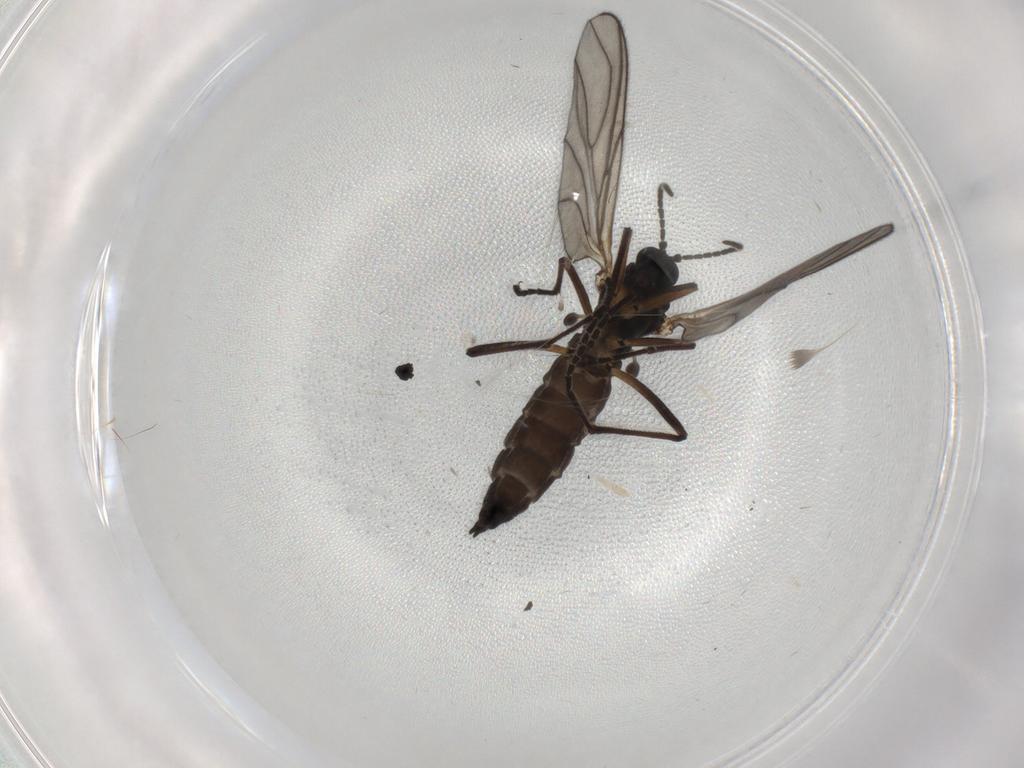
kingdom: Animalia
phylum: Arthropoda
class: Insecta
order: Diptera
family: Sciaridae
